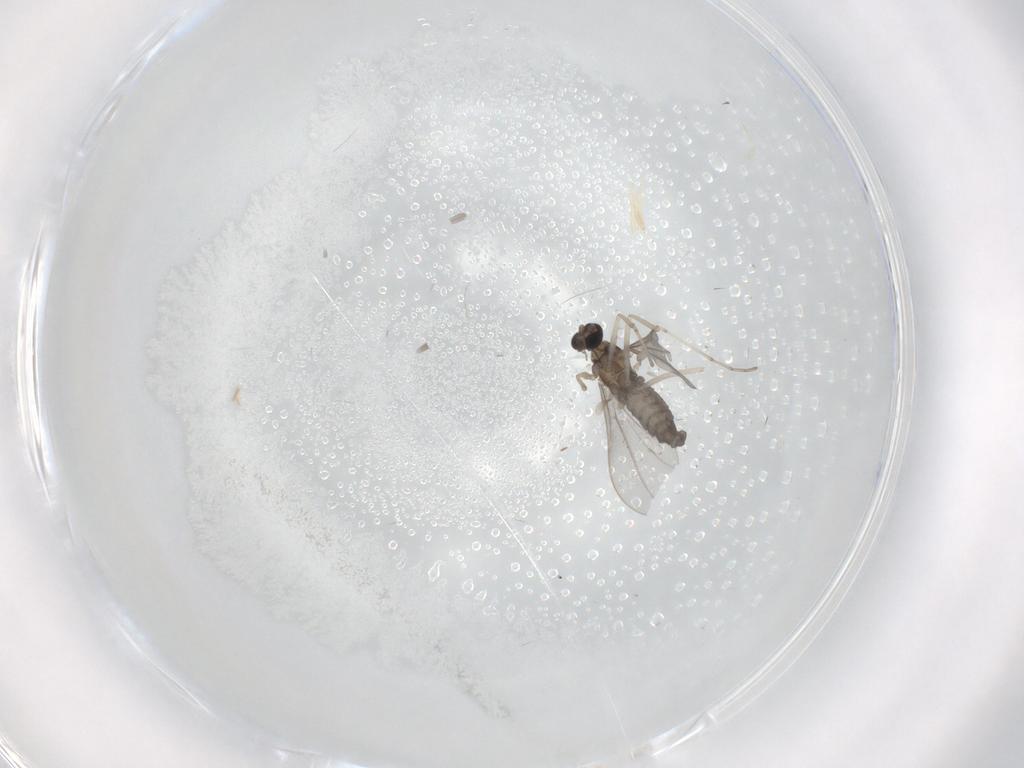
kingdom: Animalia
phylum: Arthropoda
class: Insecta
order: Diptera
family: Cecidomyiidae
